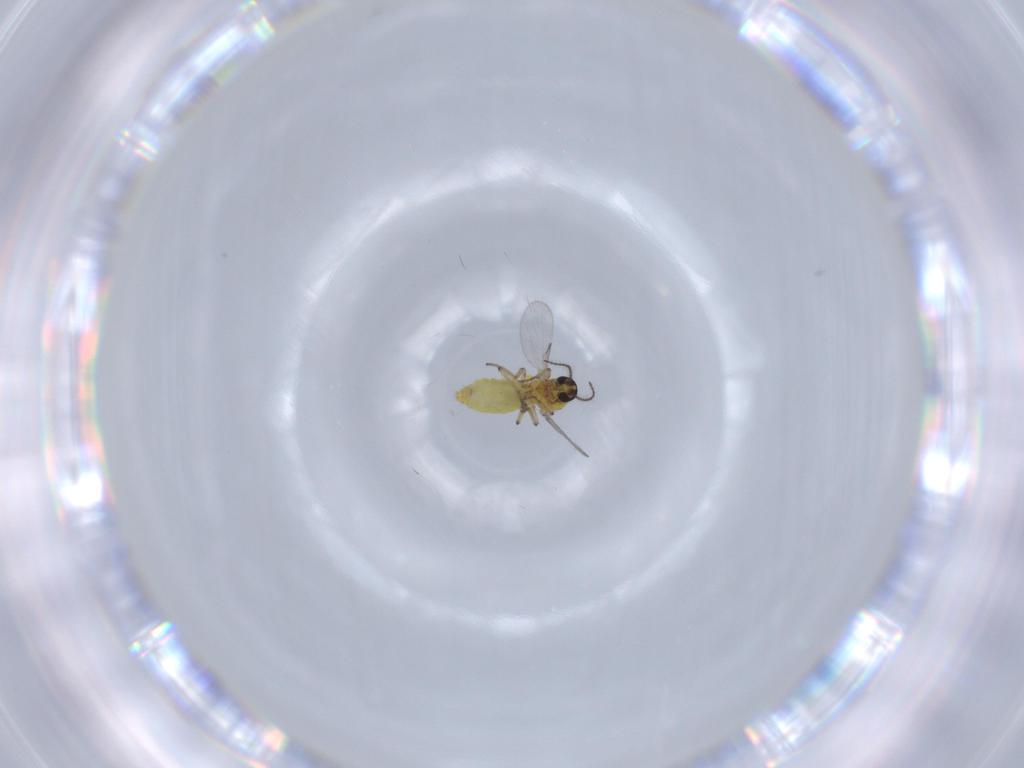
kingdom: Animalia
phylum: Arthropoda
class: Insecta
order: Diptera
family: Ceratopogonidae
